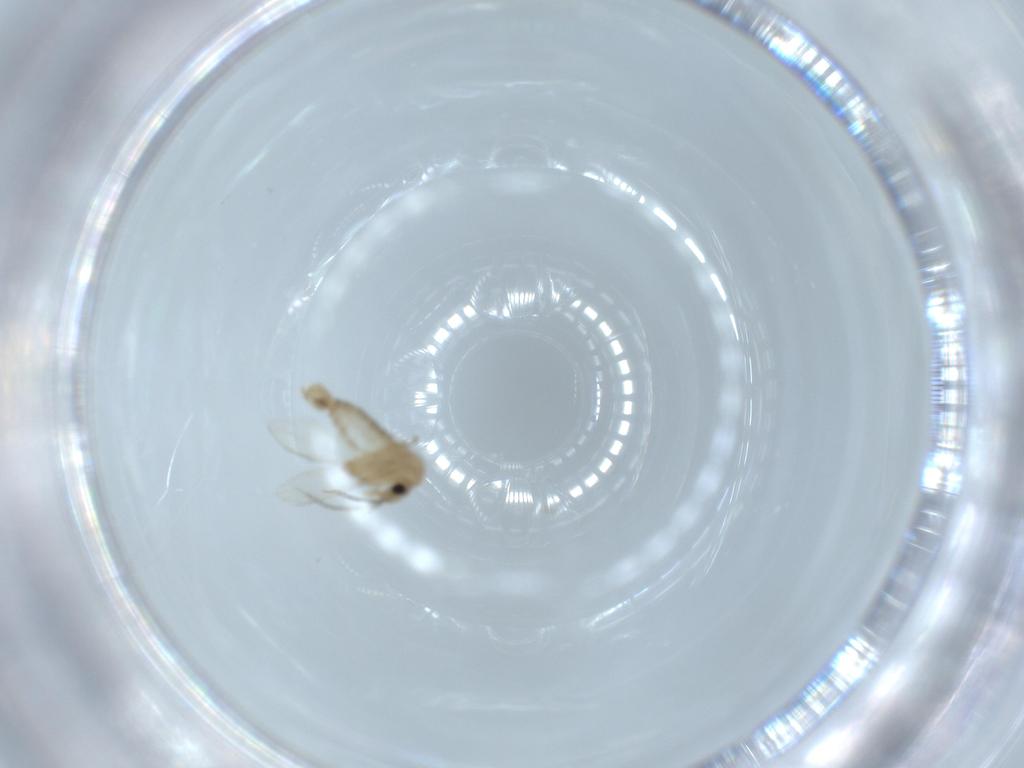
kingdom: Animalia
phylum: Arthropoda
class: Insecta
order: Diptera
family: Psychodidae
